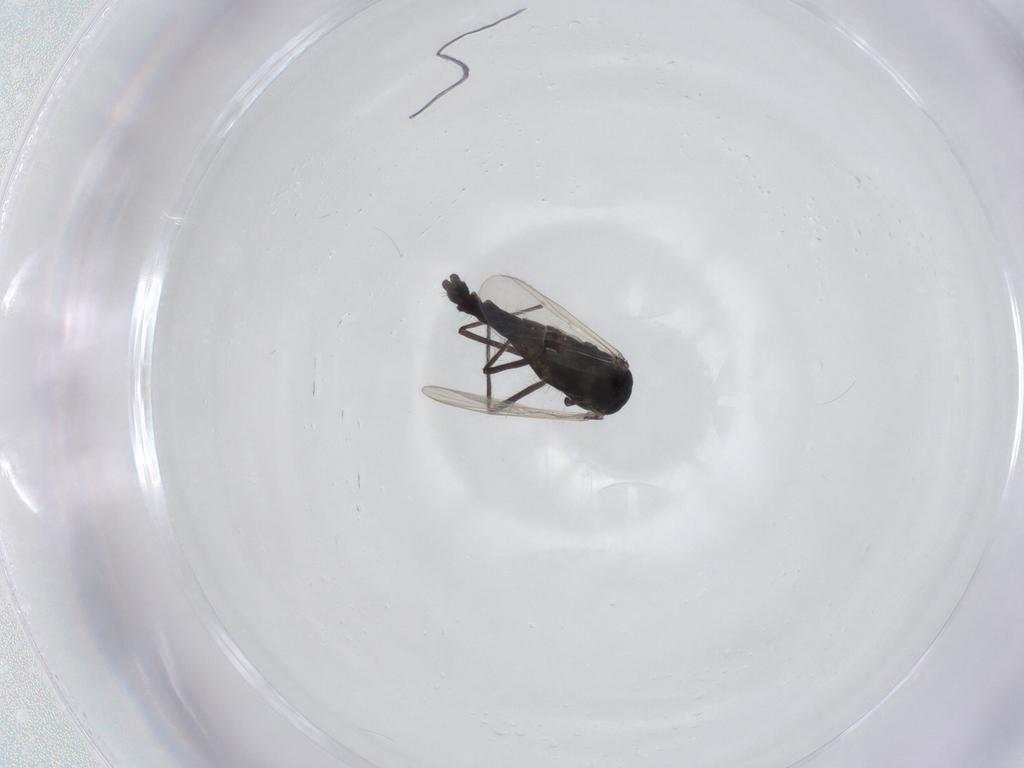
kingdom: Animalia
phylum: Arthropoda
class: Insecta
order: Diptera
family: Chironomidae
